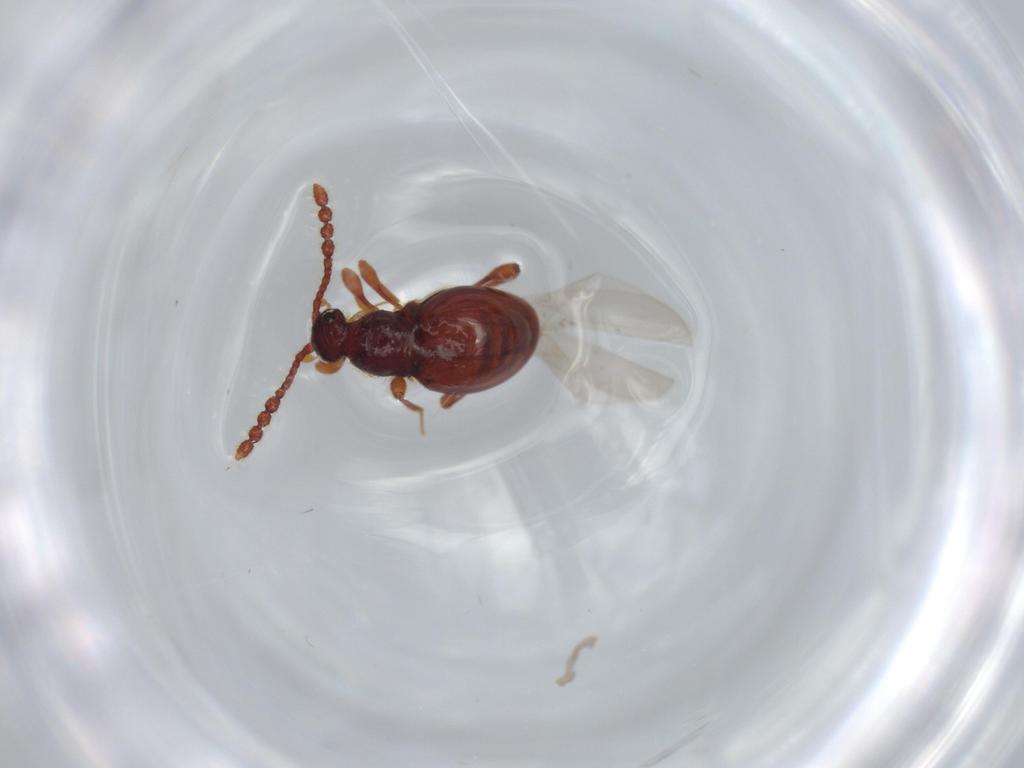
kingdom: Animalia
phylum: Arthropoda
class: Insecta
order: Coleoptera
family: Staphylinidae
